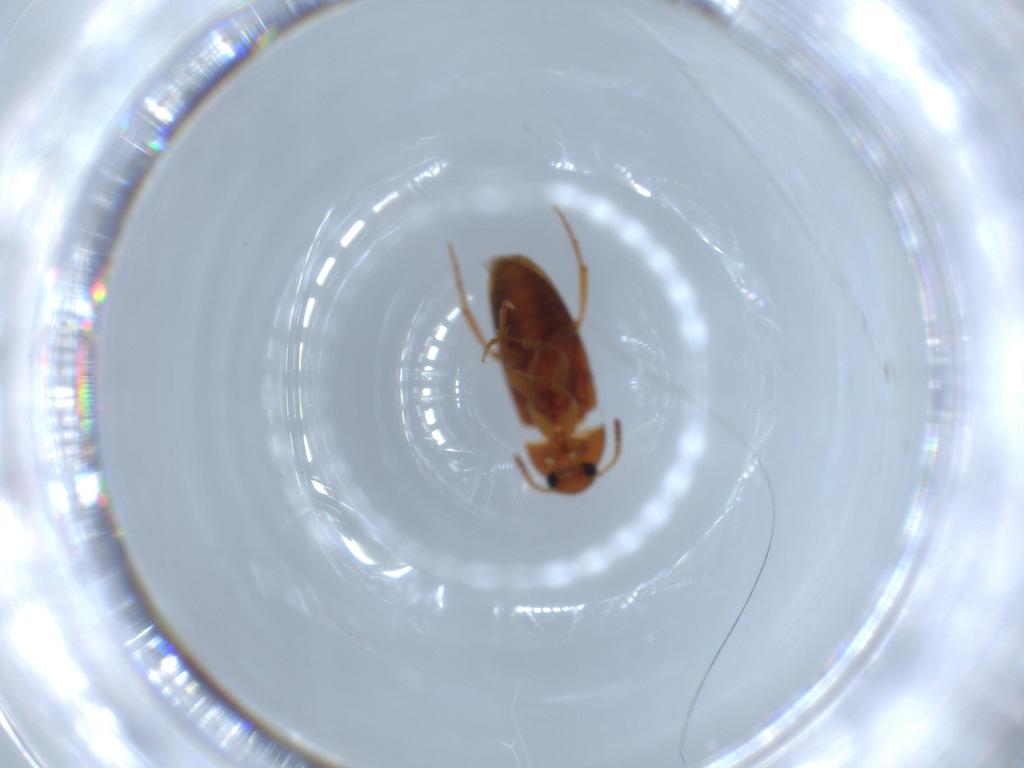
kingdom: Animalia
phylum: Arthropoda
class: Insecta
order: Coleoptera
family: Scraptiidae
